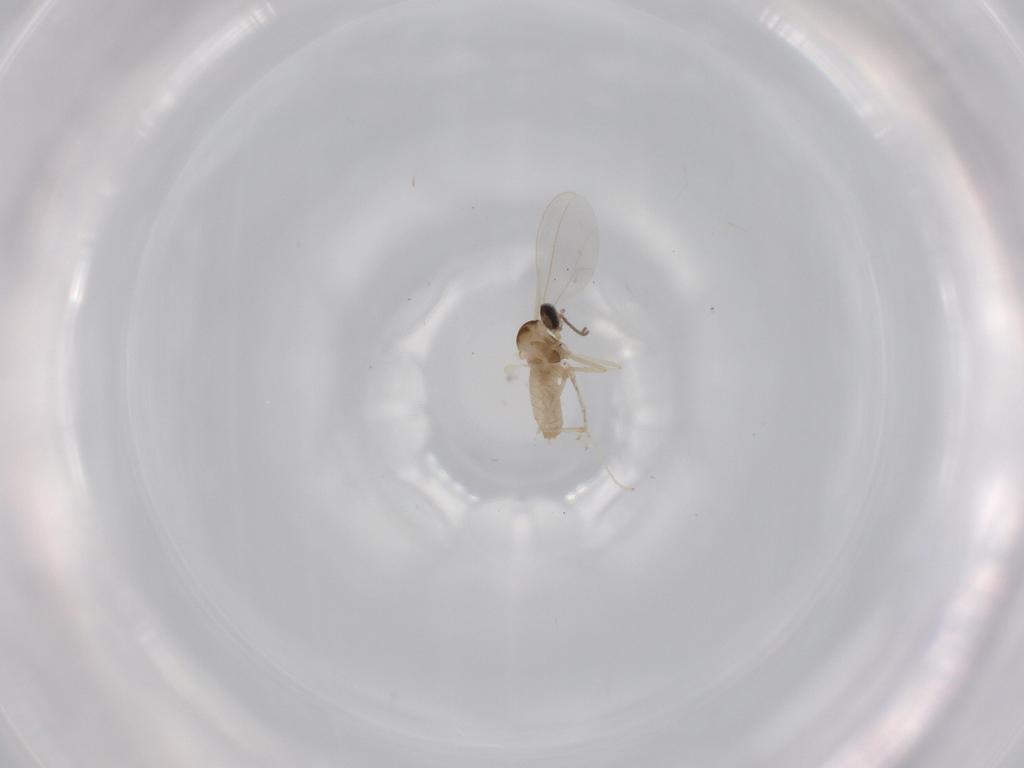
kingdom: Animalia
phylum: Arthropoda
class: Insecta
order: Diptera
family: Cecidomyiidae
